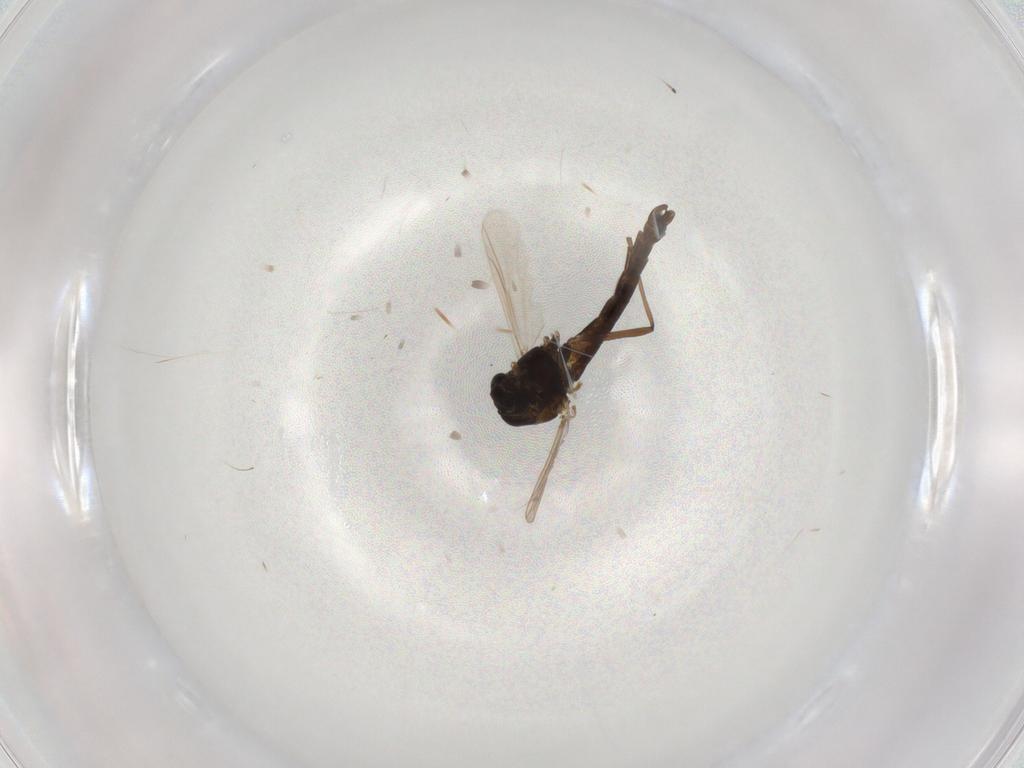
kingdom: Animalia
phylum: Arthropoda
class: Insecta
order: Diptera
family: Chironomidae
